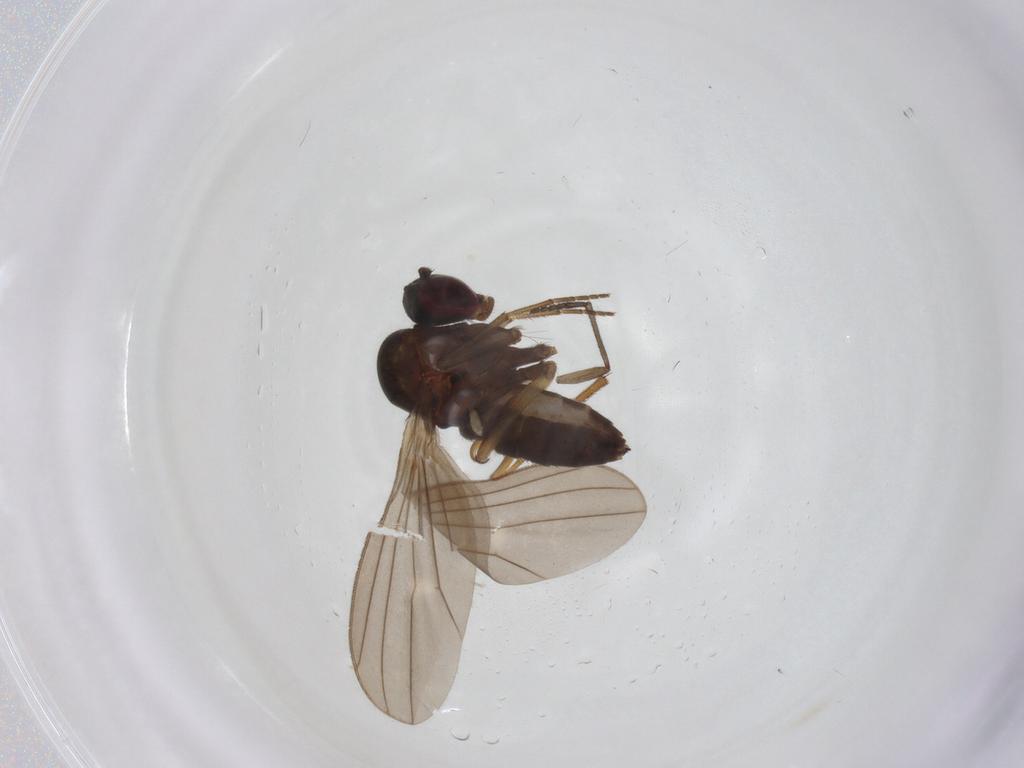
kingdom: Animalia
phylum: Arthropoda
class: Insecta
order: Diptera
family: Dolichopodidae
